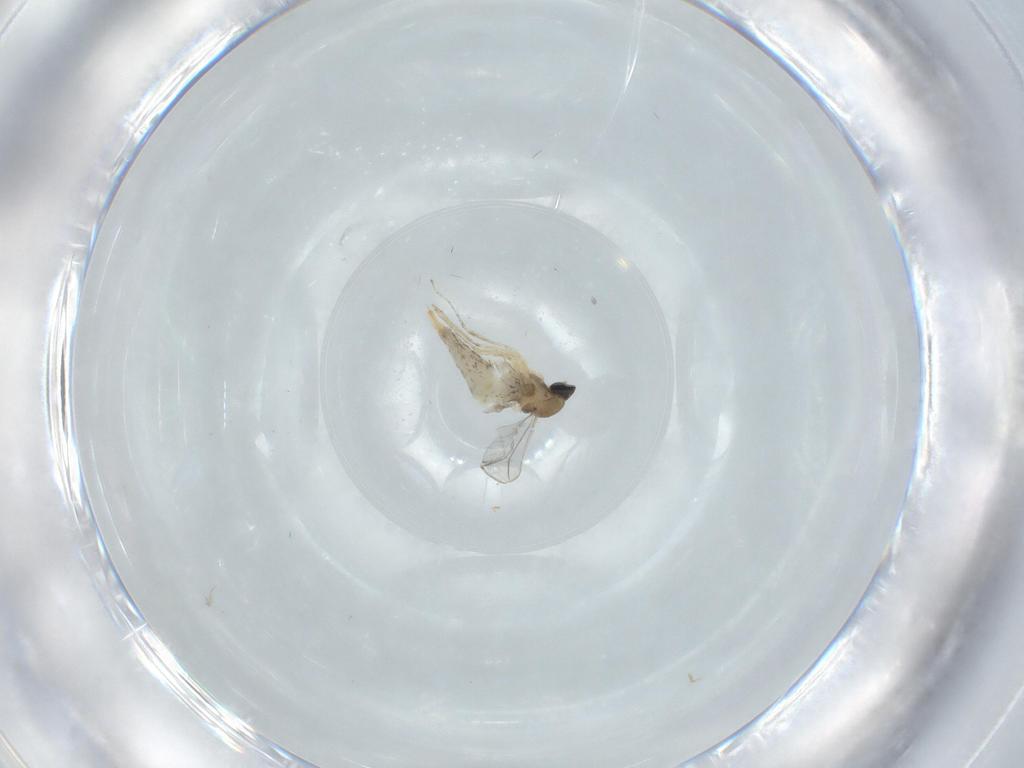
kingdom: Animalia
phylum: Arthropoda
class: Insecta
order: Diptera
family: Cecidomyiidae
